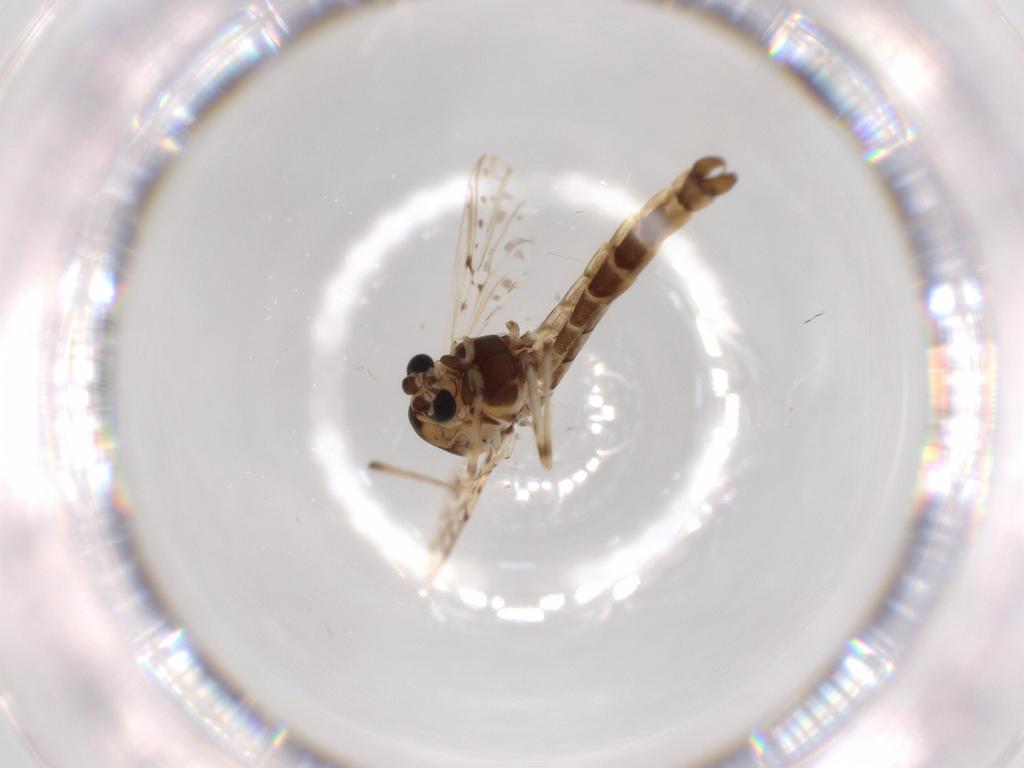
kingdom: Animalia
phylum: Arthropoda
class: Insecta
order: Diptera
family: Chironomidae
